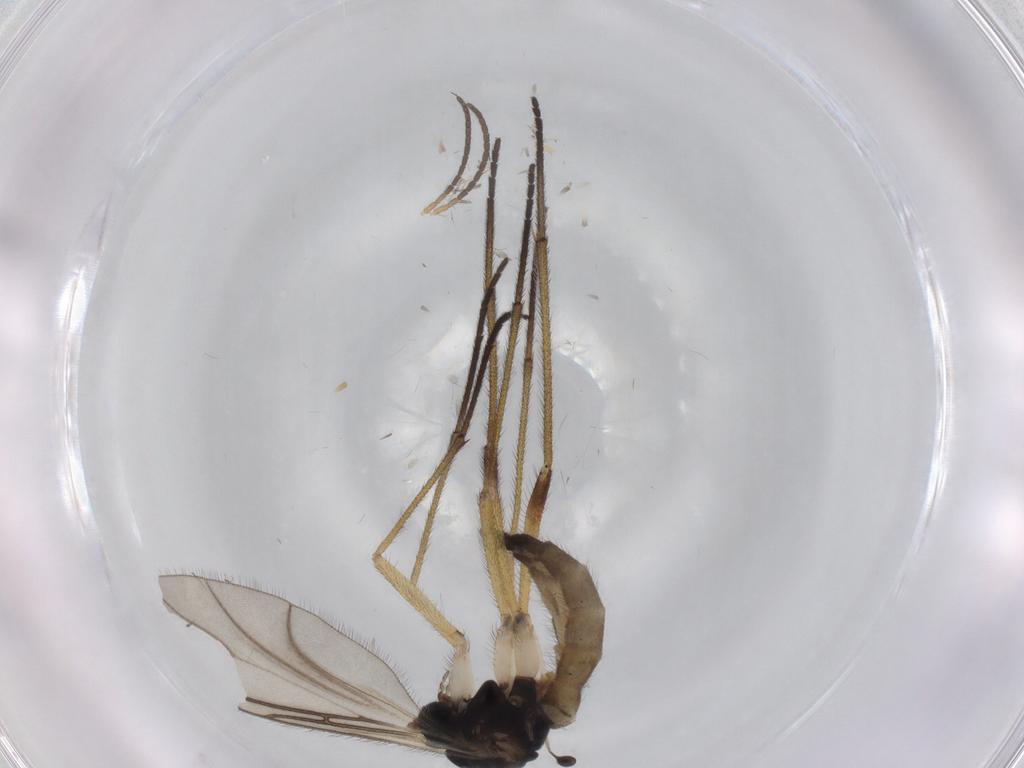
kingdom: Animalia
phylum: Arthropoda
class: Insecta
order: Diptera
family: Sciaridae
